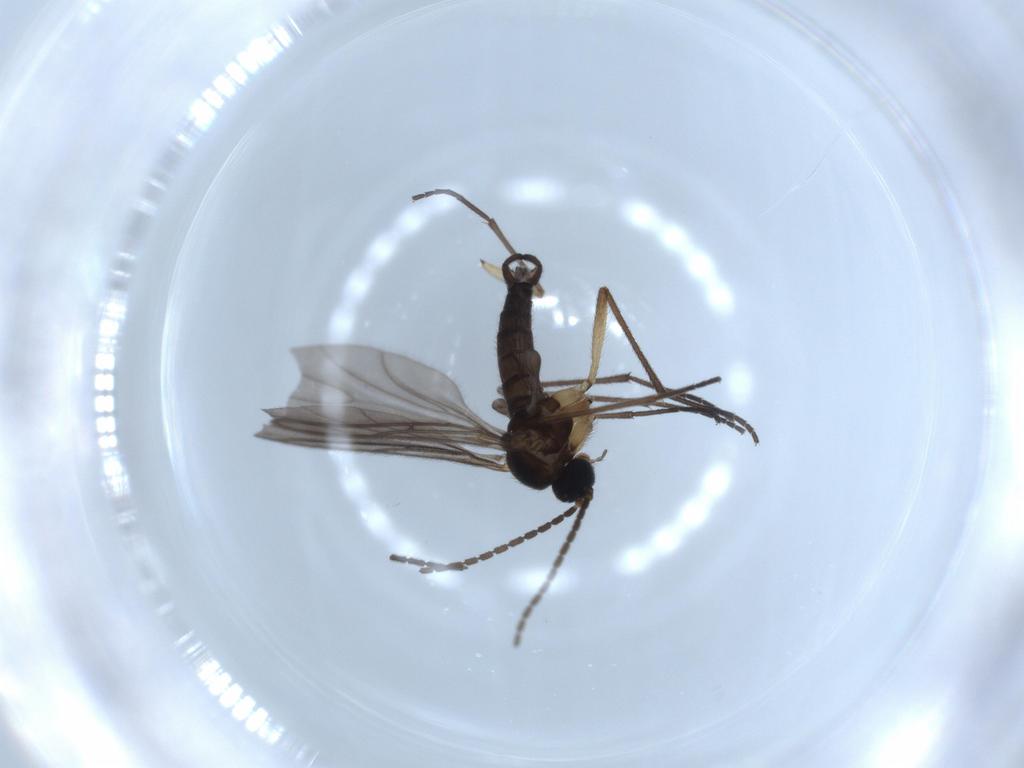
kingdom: Animalia
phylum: Arthropoda
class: Insecta
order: Diptera
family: Sciaridae
